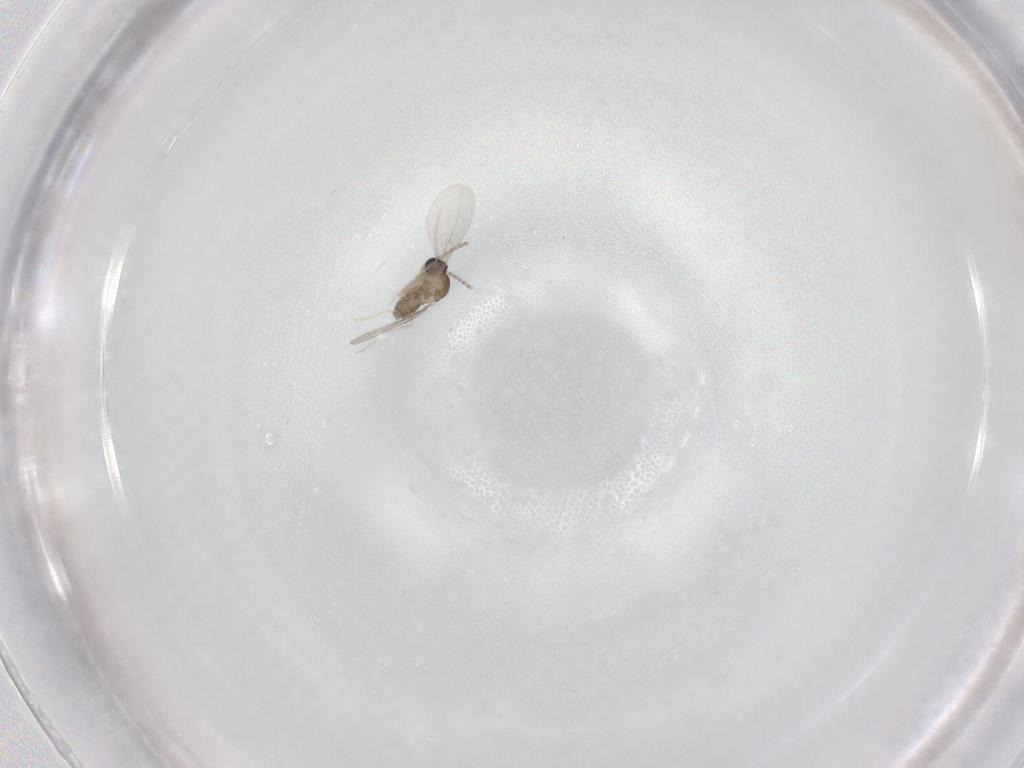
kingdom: Animalia
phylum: Arthropoda
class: Insecta
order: Diptera
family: Cecidomyiidae
